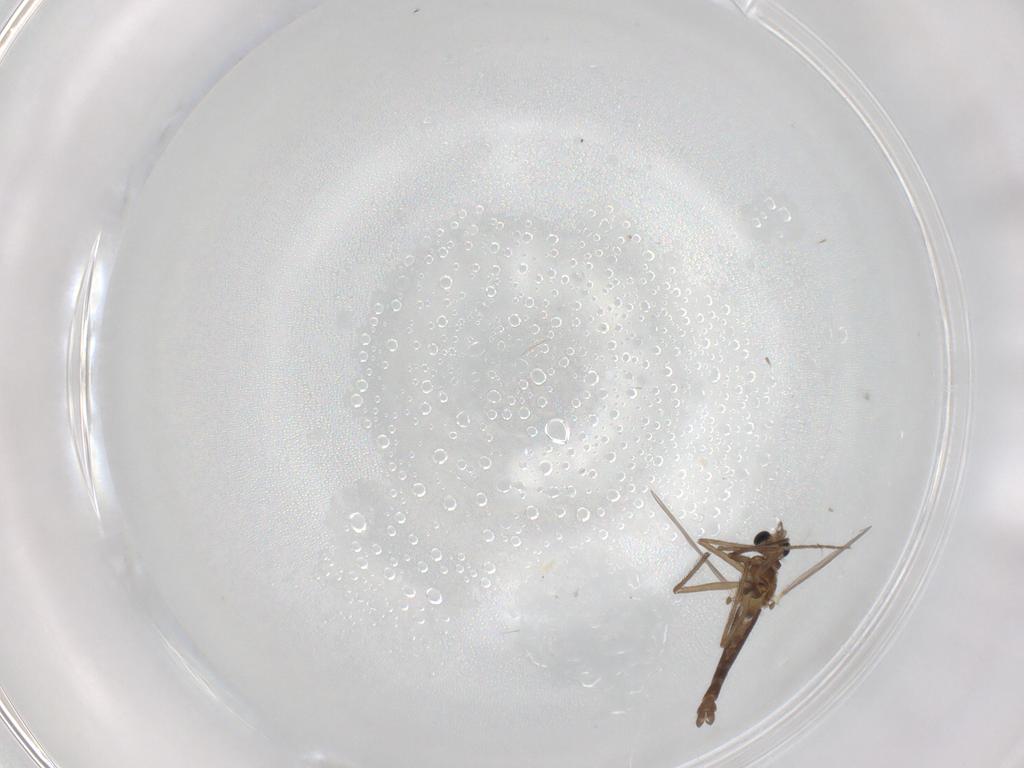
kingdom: Animalia
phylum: Arthropoda
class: Insecta
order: Diptera
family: Chironomidae
